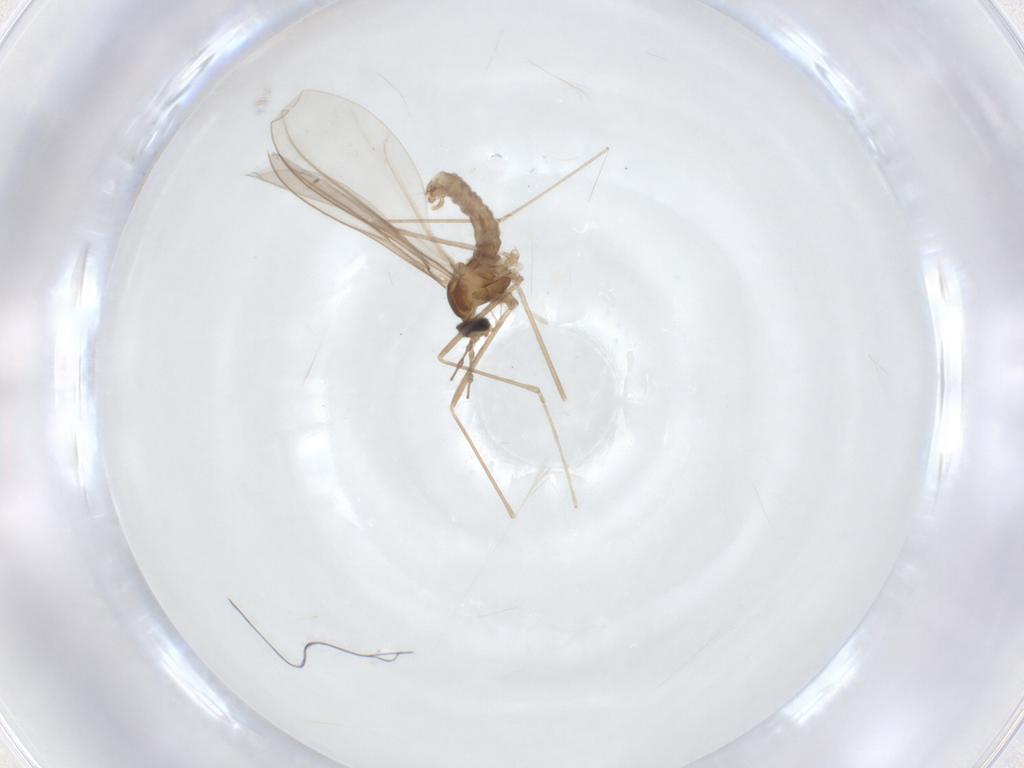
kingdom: Animalia
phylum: Arthropoda
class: Insecta
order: Diptera
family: Cecidomyiidae
